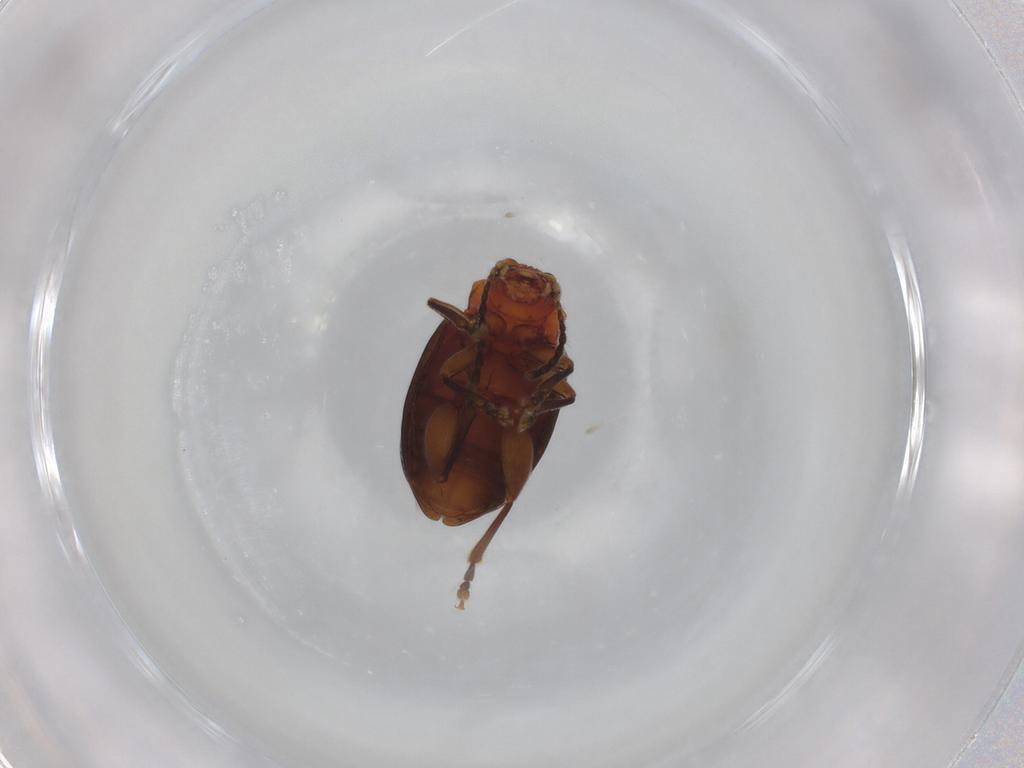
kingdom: Animalia
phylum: Arthropoda
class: Insecta
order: Coleoptera
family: Chrysomelidae
